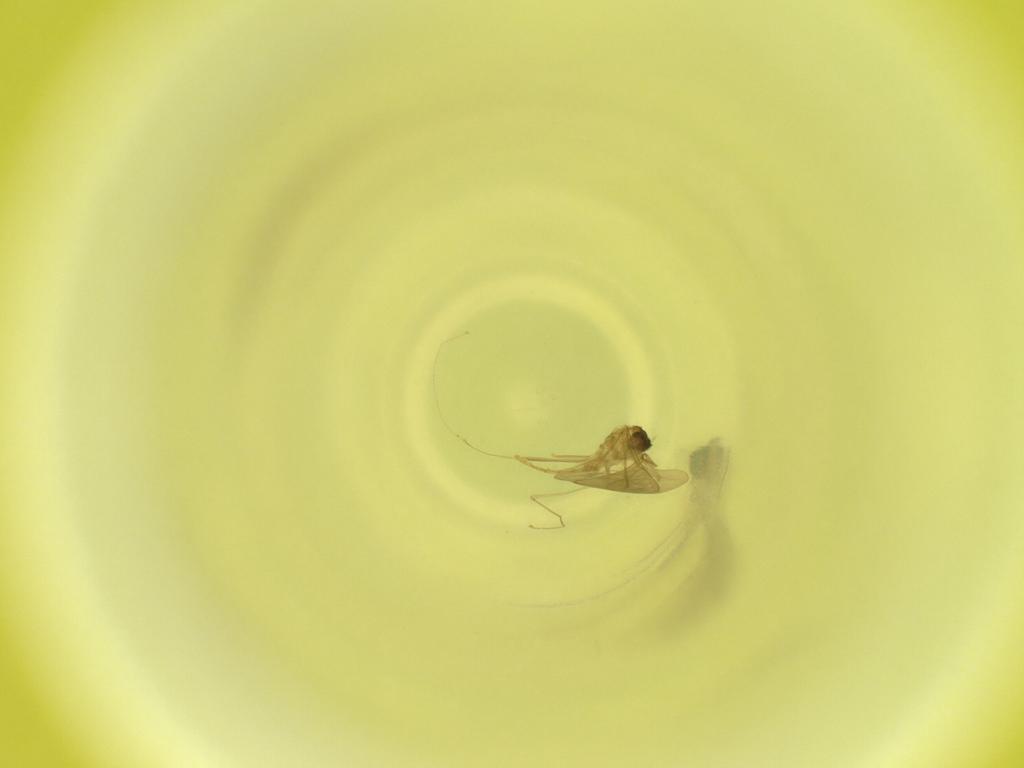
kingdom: Animalia
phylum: Arthropoda
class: Insecta
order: Diptera
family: Cecidomyiidae
